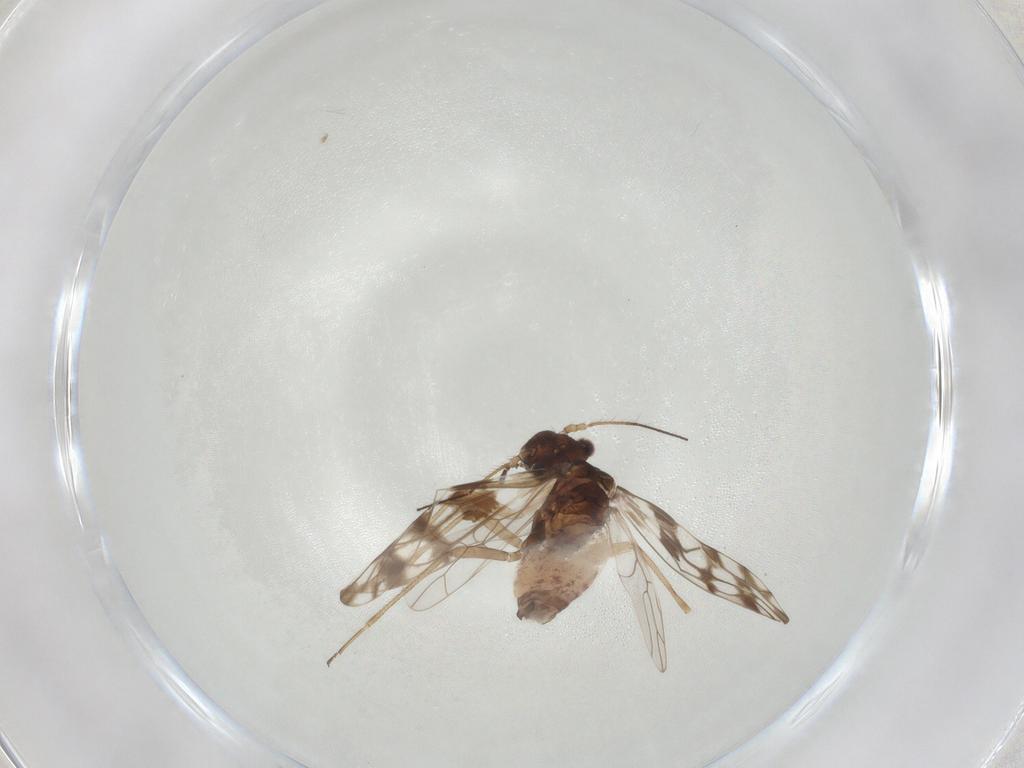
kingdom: Animalia
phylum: Arthropoda
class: Insecta
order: Psocodea
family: Elipsocidae
